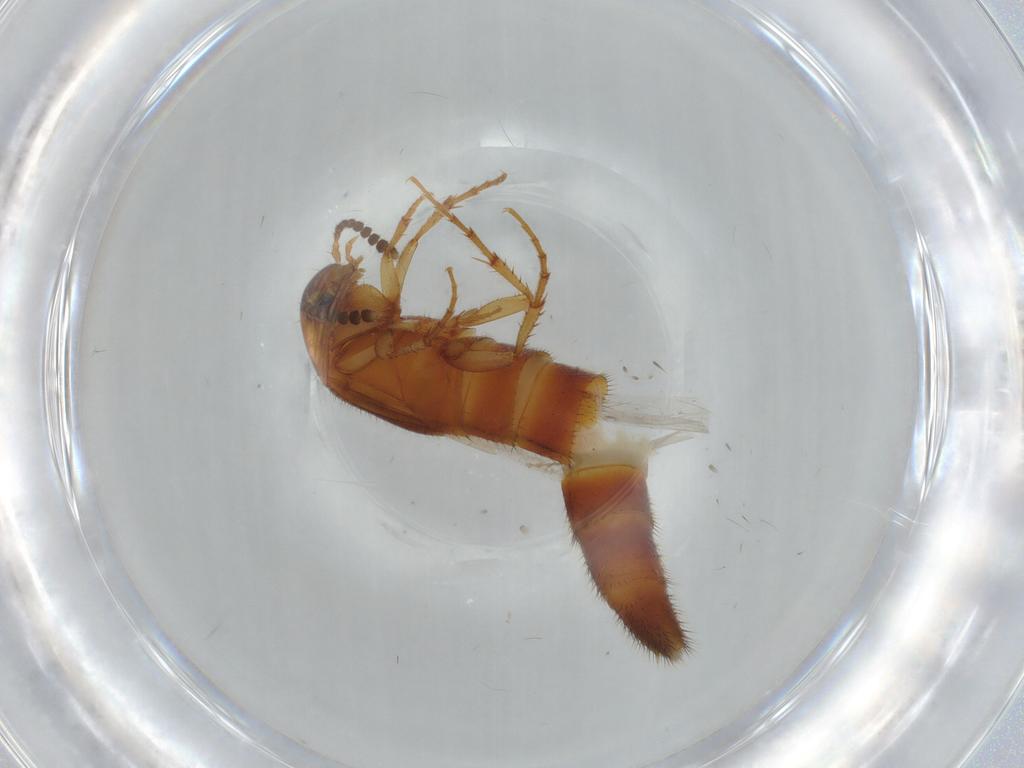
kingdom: Animalia
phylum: Arthropoda
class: Insecta
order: Coleoptera
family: Staphylinidae
